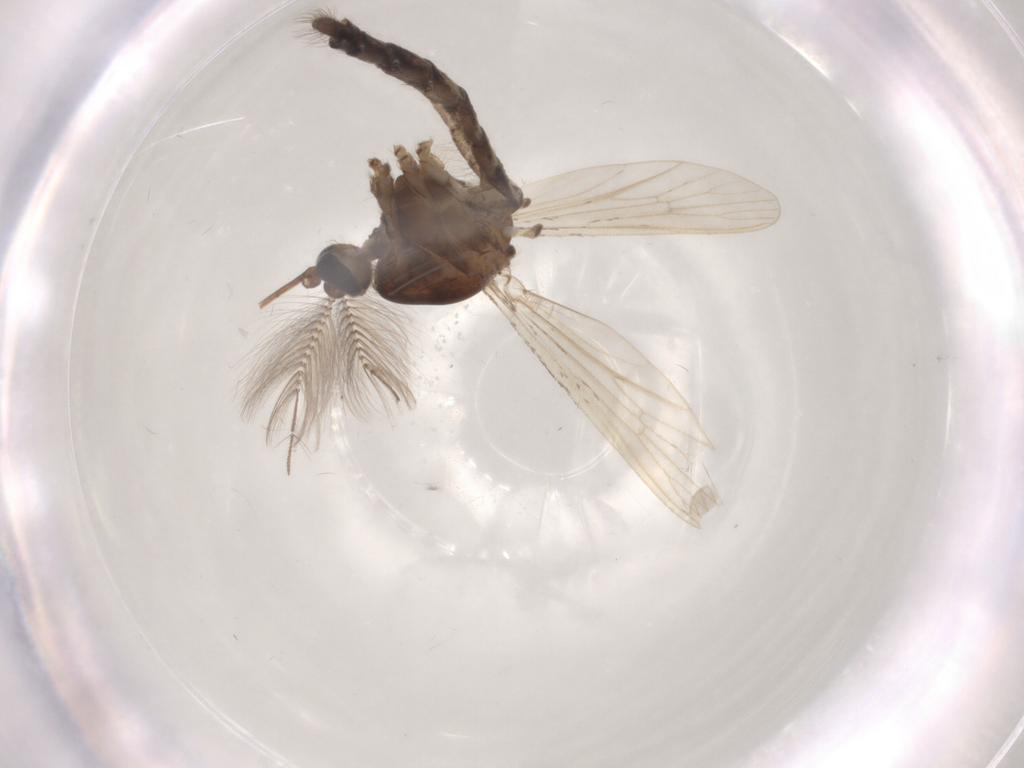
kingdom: Animalia
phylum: Arthropoda
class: Insecta
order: Diptera
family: Culicidae
